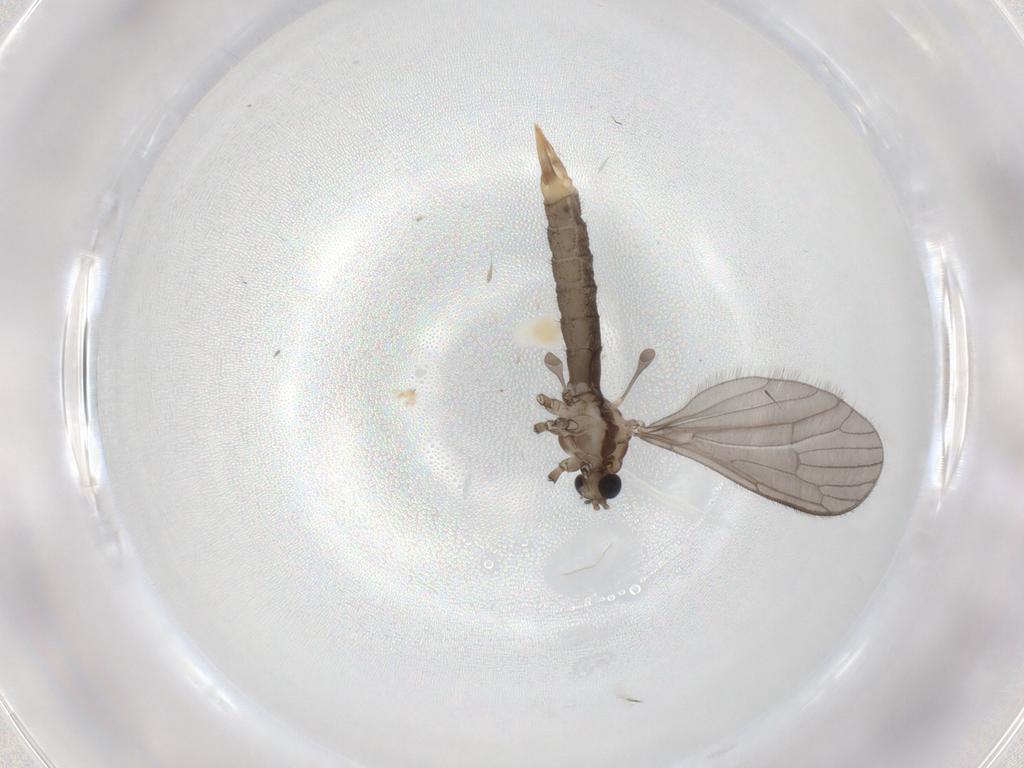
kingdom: Animalia
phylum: Arthropoda
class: Insecta
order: Diptera
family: Limoniidae
